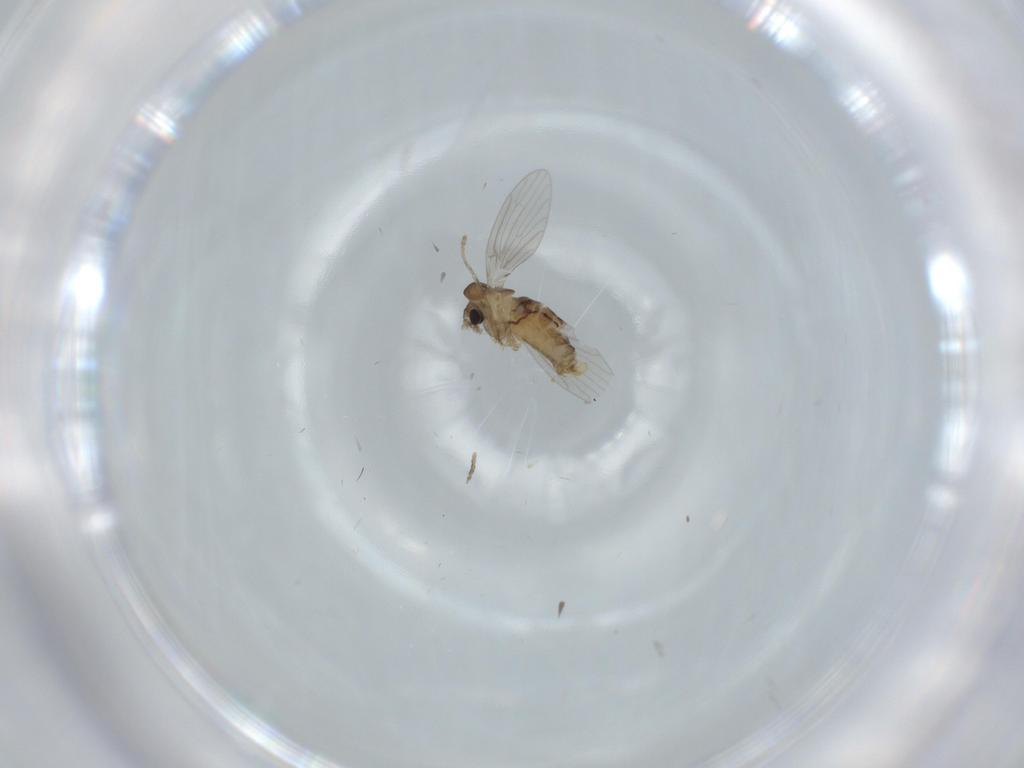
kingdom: Animalia
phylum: Arthropoda
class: Insecta
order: Diptera
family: Psychodidae
